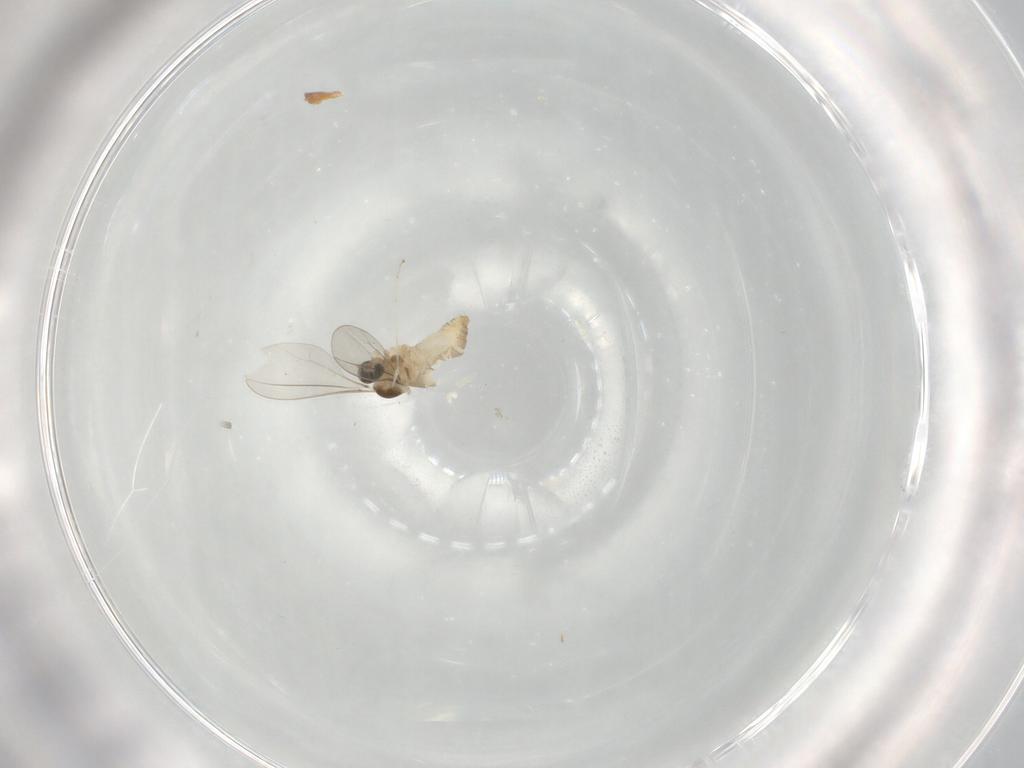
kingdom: Animalia
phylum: Arthropoda
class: Insecta
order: Diptera
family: Cecidomyiidae
